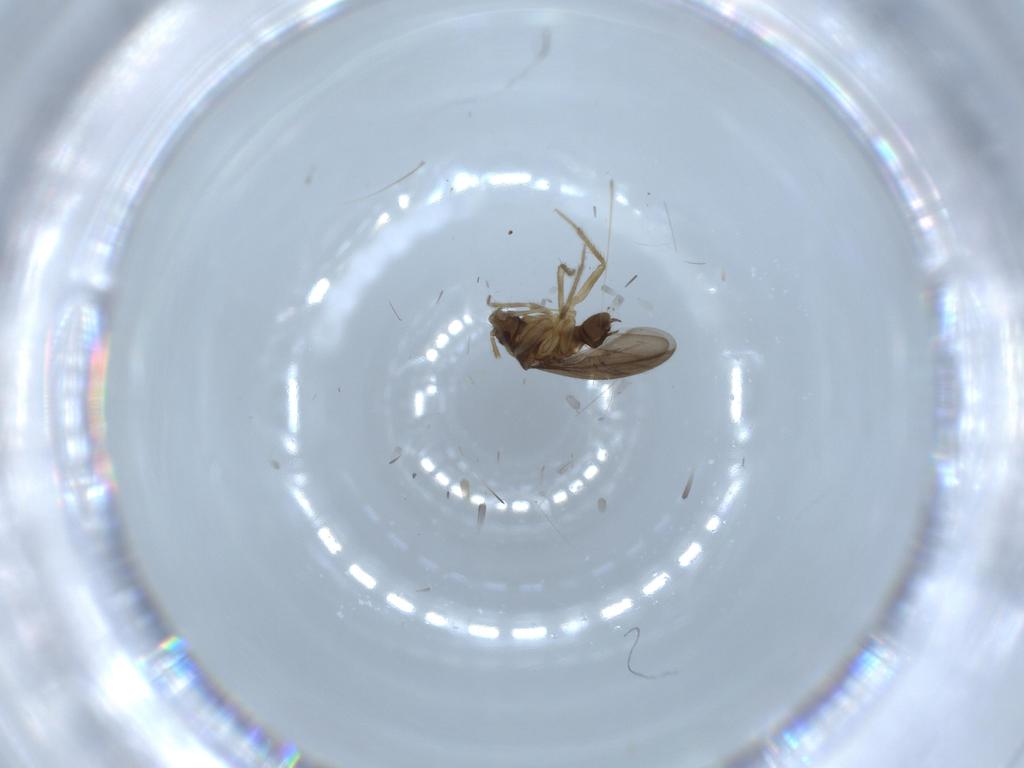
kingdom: Animalia
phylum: Arthropoda
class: Insecta
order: Hemiptera
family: Ceratocombidae
